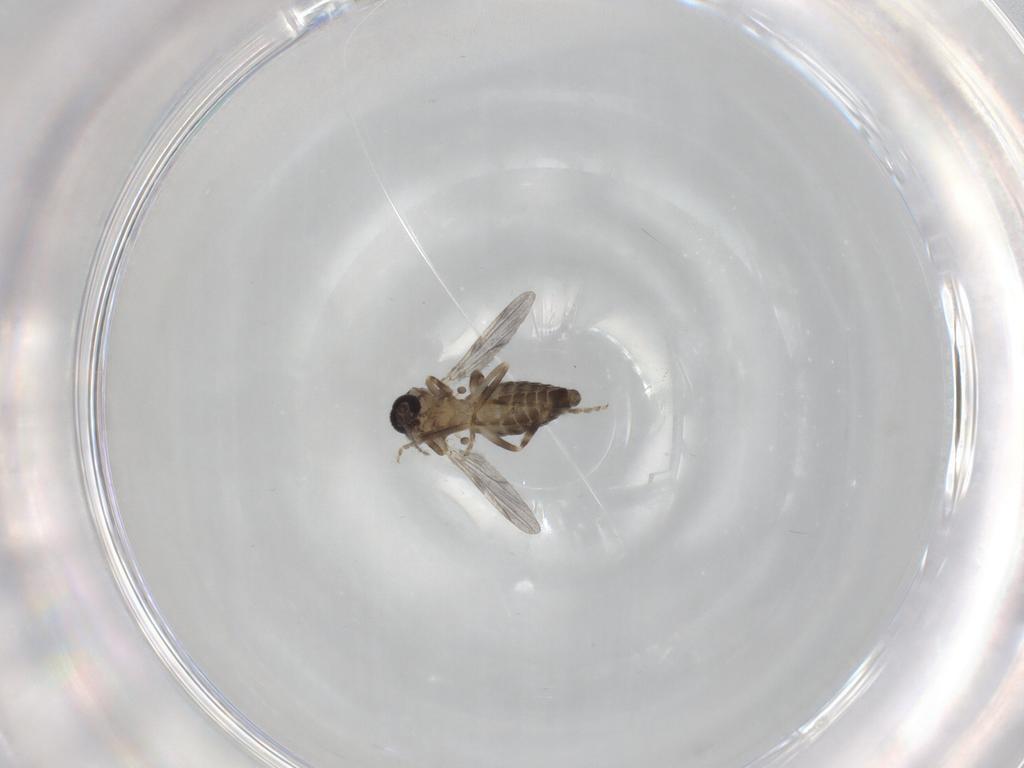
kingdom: Animalia
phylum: Arthropoda
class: Insecta
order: Diptera
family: Ceratopogonidae
